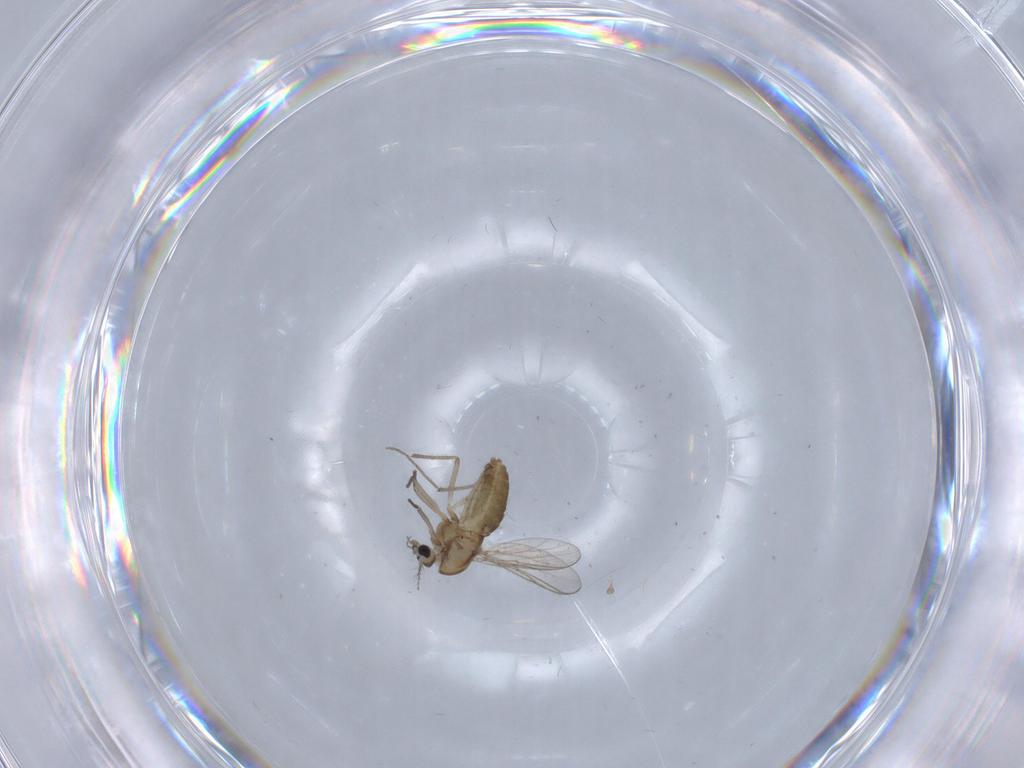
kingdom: Animalia
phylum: Arthropoda
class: Insecta
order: Diptera
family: Chironomidae
